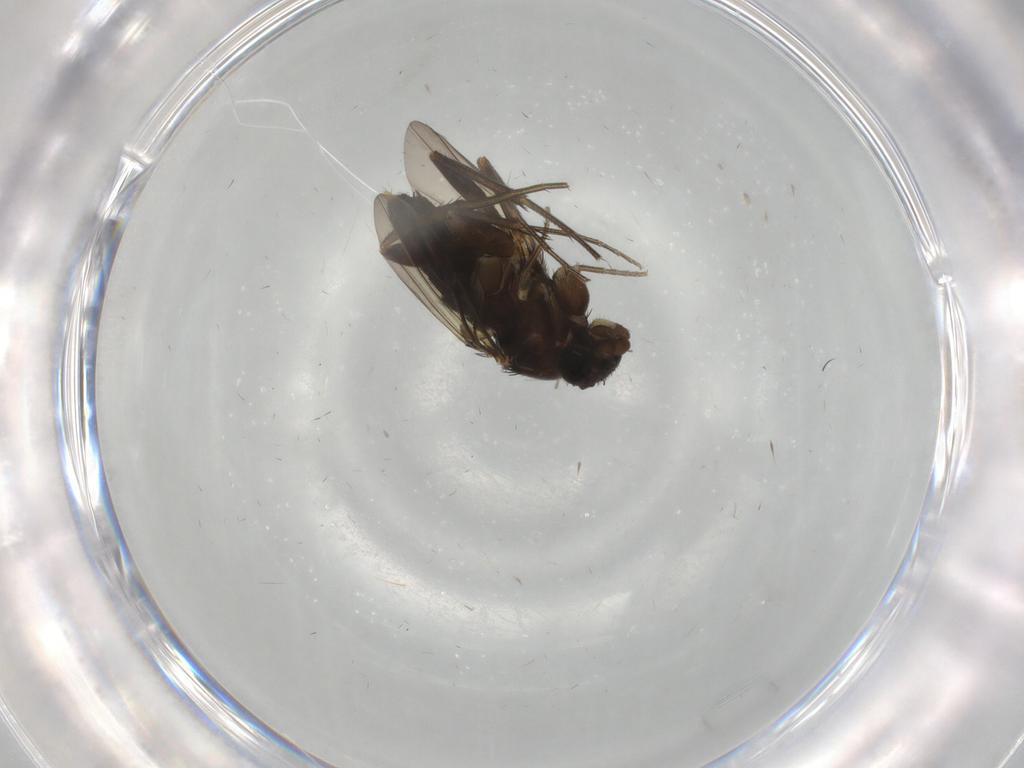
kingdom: Animalia
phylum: Arthropoda
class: Insecta
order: Diptera
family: Phoridae
